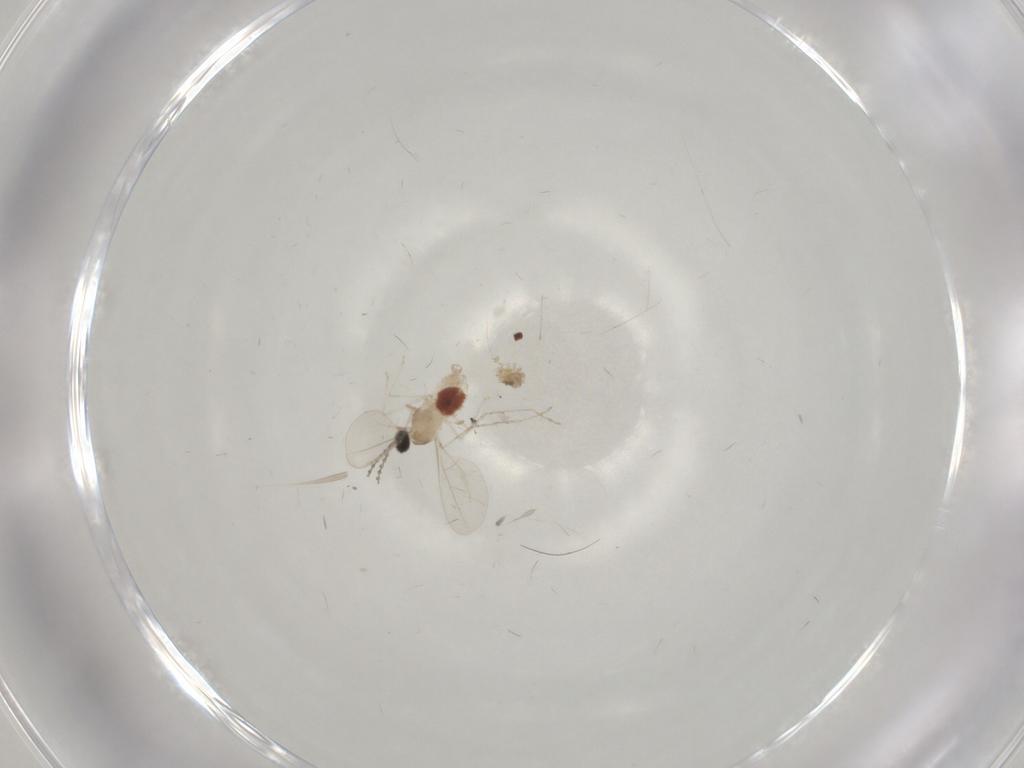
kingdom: Animalia
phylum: Arthropoda
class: Insecta
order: Diptera
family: Cecidomyiidae
